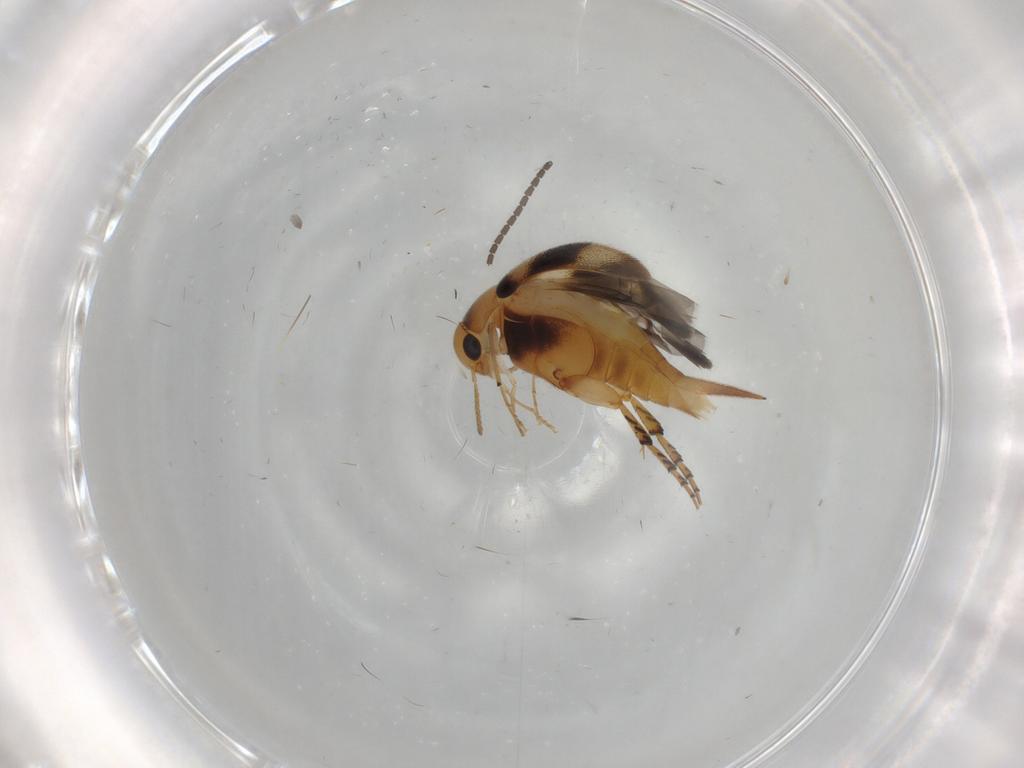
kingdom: Animalia
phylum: Arthropoda
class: Insecta
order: Coleoptera
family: Mordellidae
